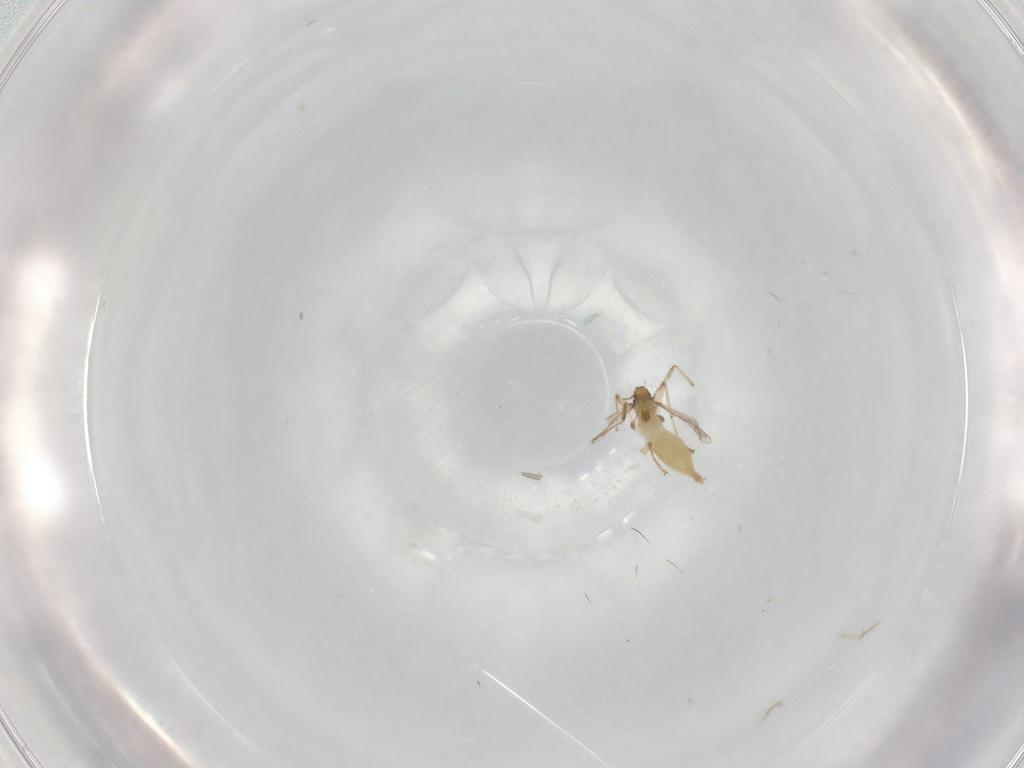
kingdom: Animalia
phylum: Arthropoda
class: Insecta
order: Diptera
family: Chironomidae
